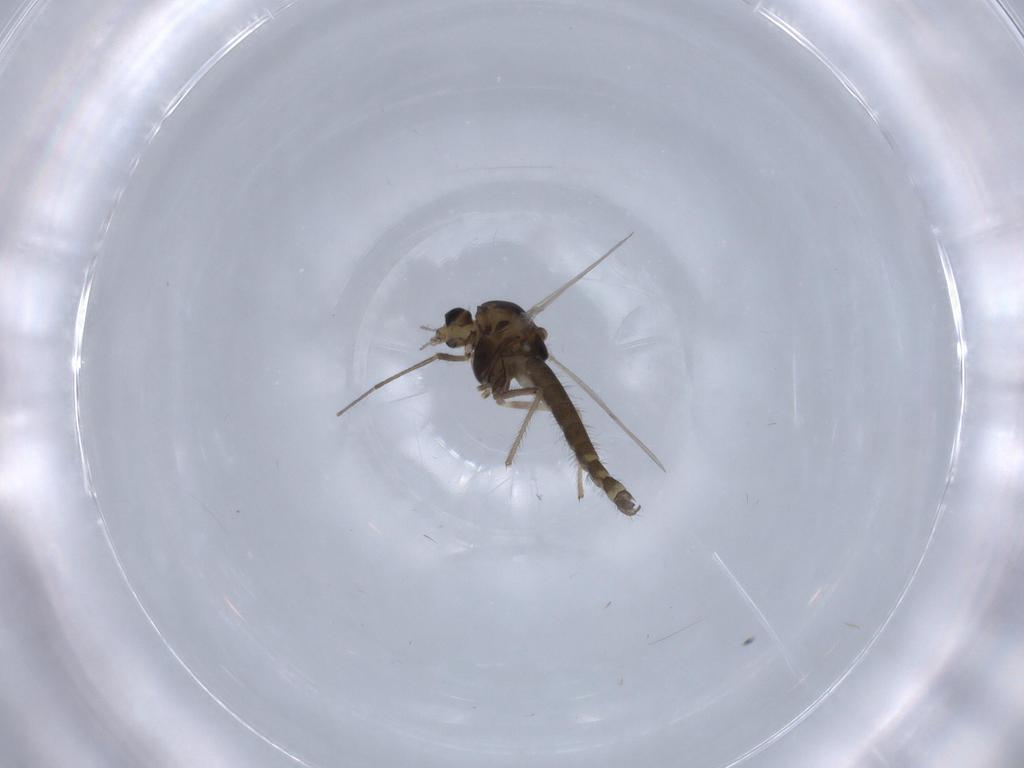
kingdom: Animalia
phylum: Arthropoda
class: Insecta
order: Diptera
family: Chironomidae
